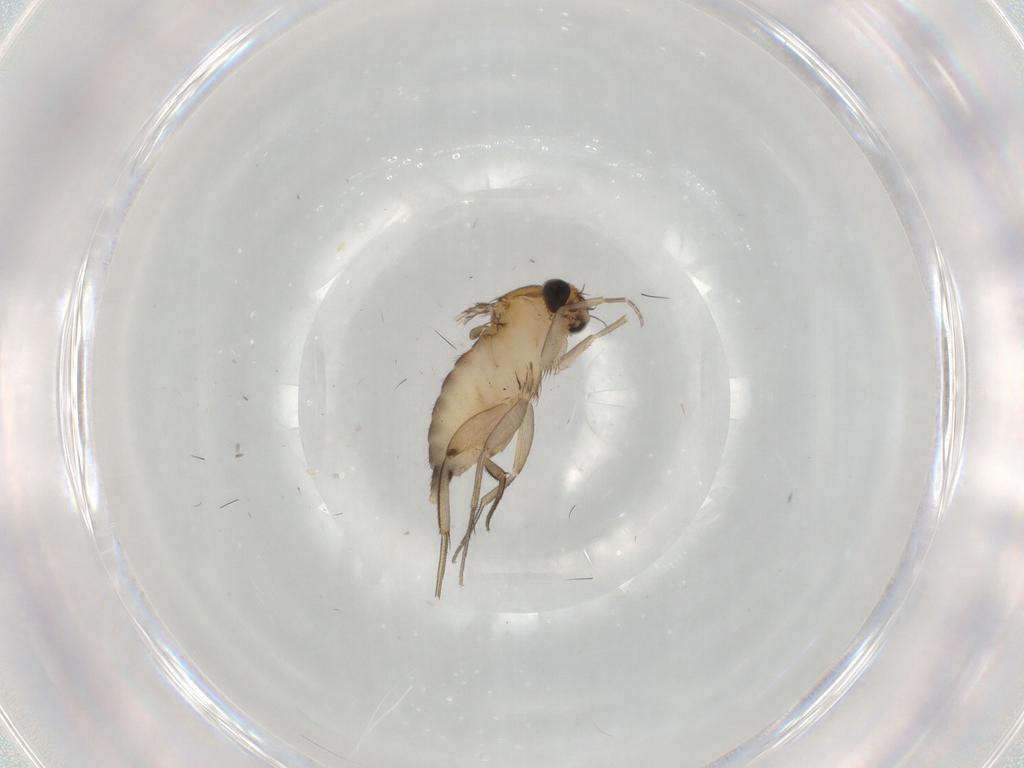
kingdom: Animalia
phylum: Arthropoda
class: Insecta
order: Diptera
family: Phoridae
